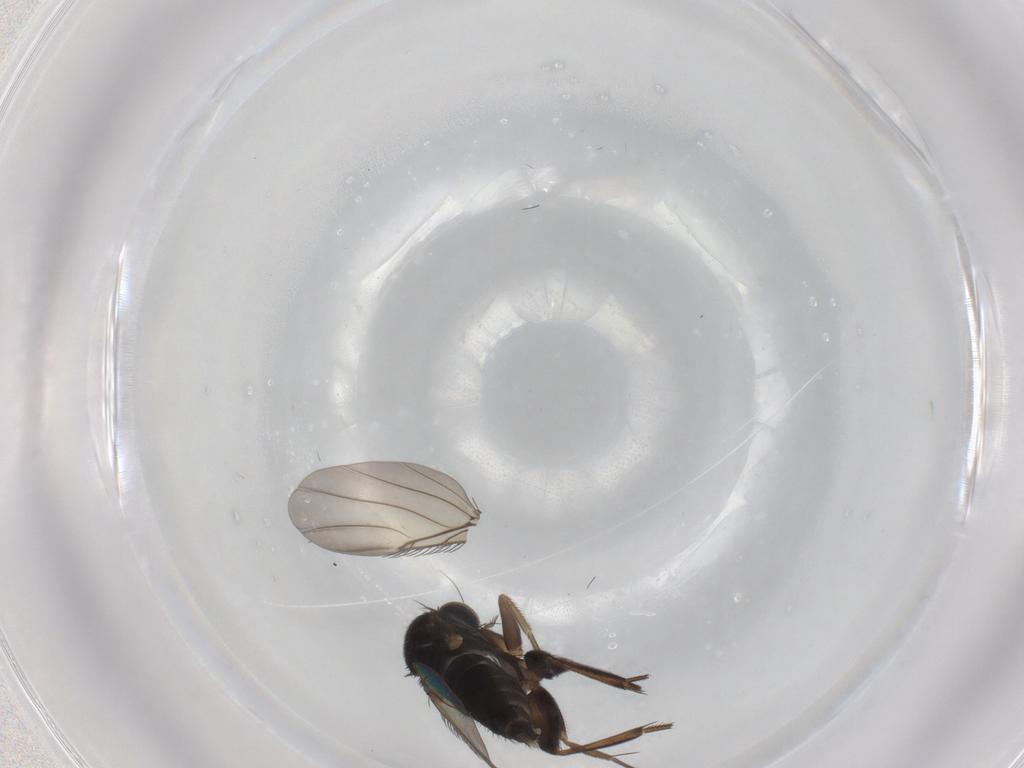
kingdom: Animalia
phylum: Arthropoda
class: Insecta
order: Diptera
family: Phoridae
